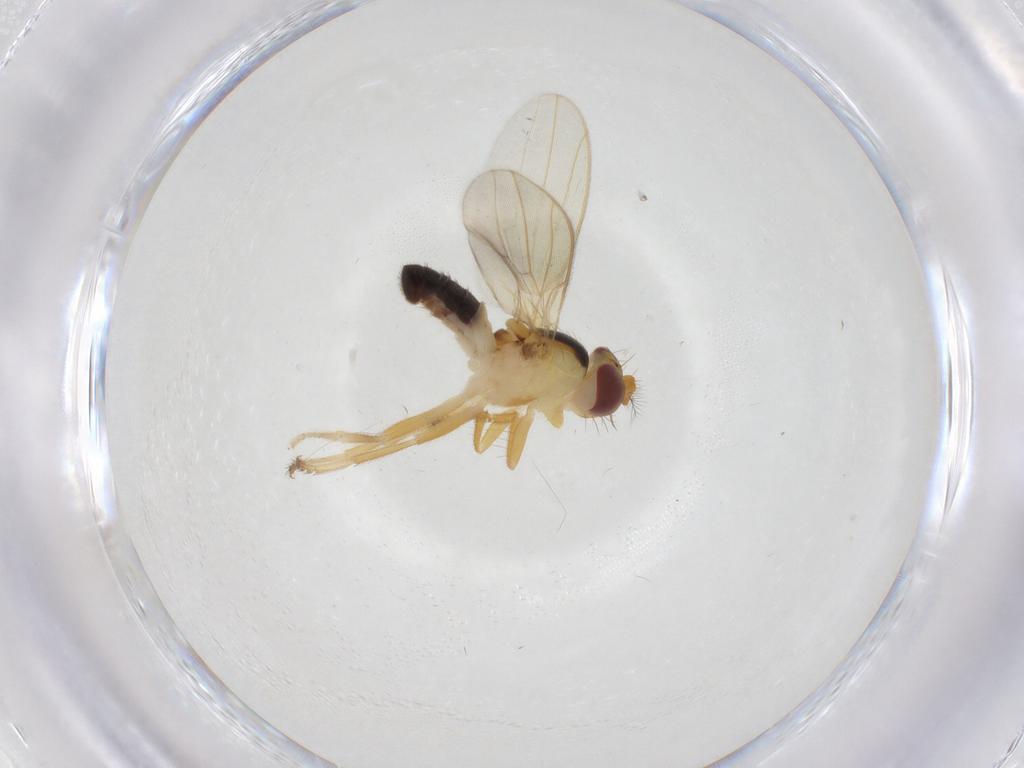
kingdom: Animalia
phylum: Arthropoda
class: Insecta
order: Diptera
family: Periscelididae
